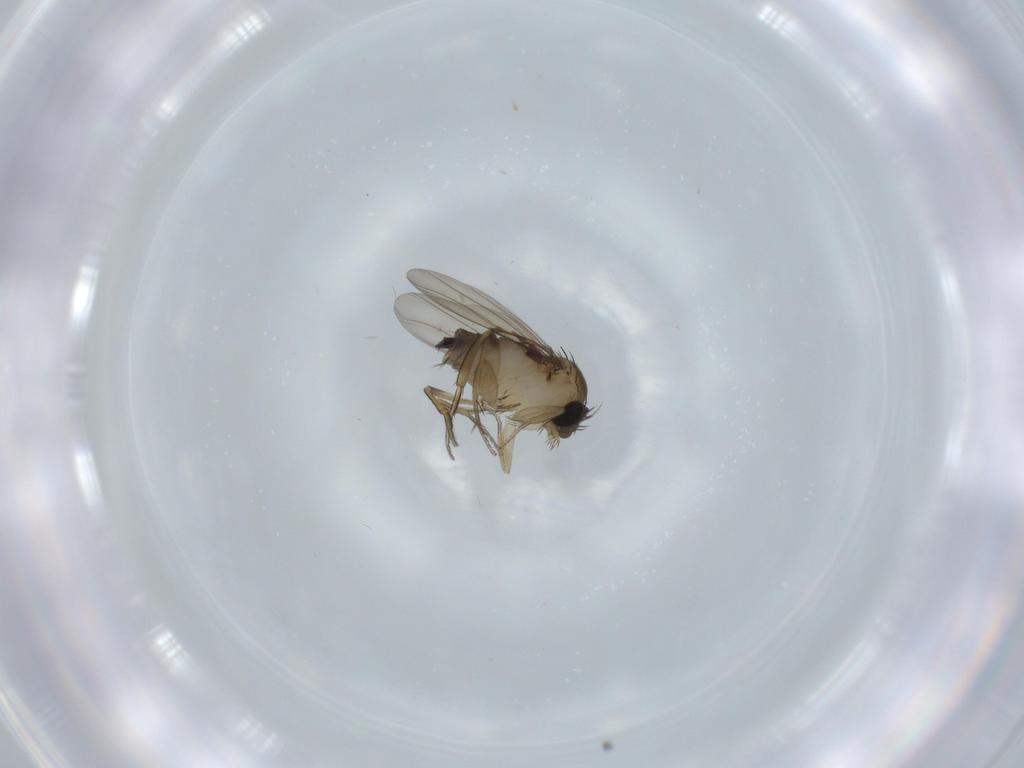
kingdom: Animalia
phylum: Arthropoda
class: Insecta
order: Diptera
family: Phoridae
